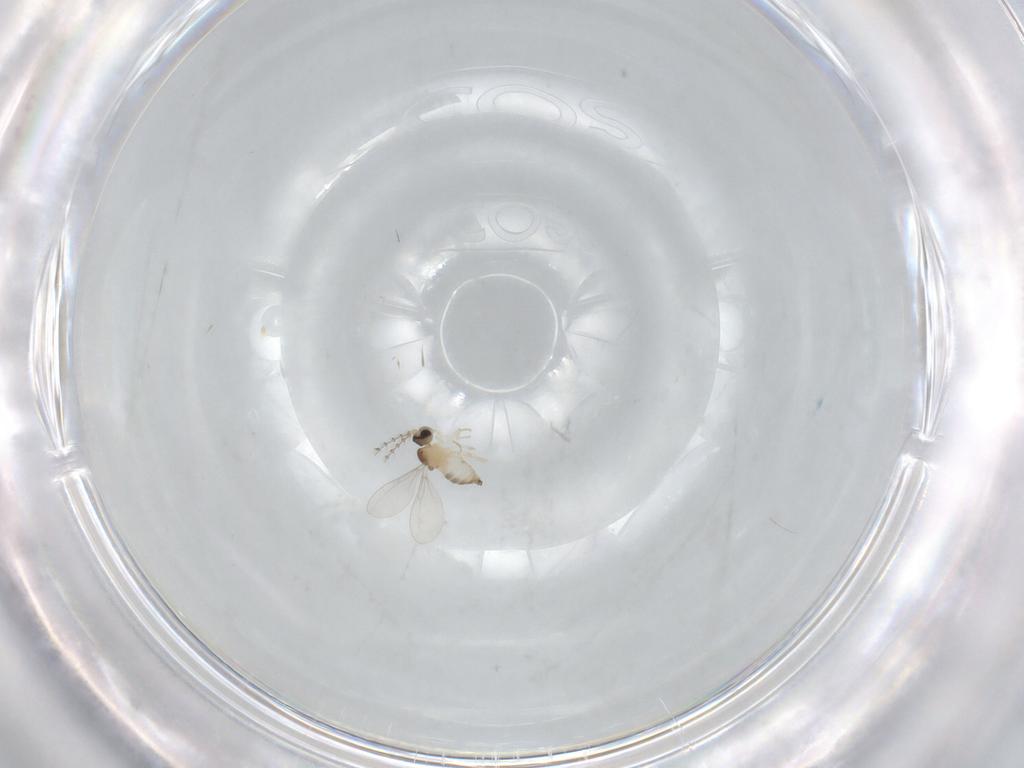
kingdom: Animalia
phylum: Arthropoda
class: Insecta
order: Diptera
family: Cecidomyiidae
